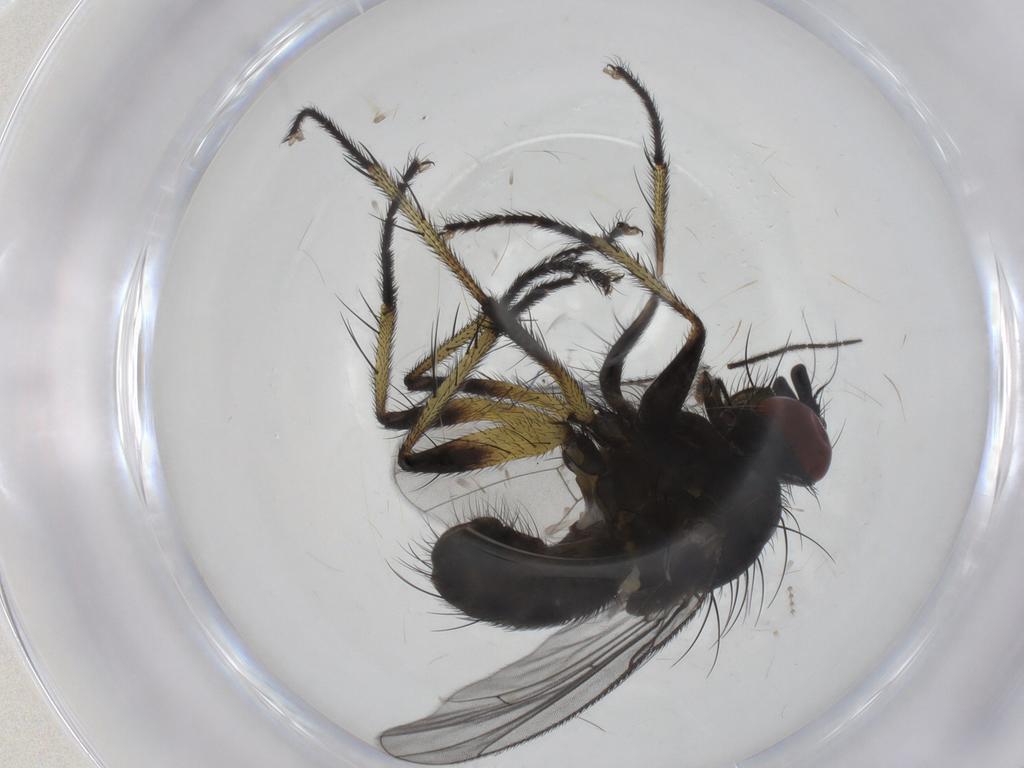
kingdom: Animalia
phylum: Arthropoda
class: Insecta
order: Diptera
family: Muscidae
